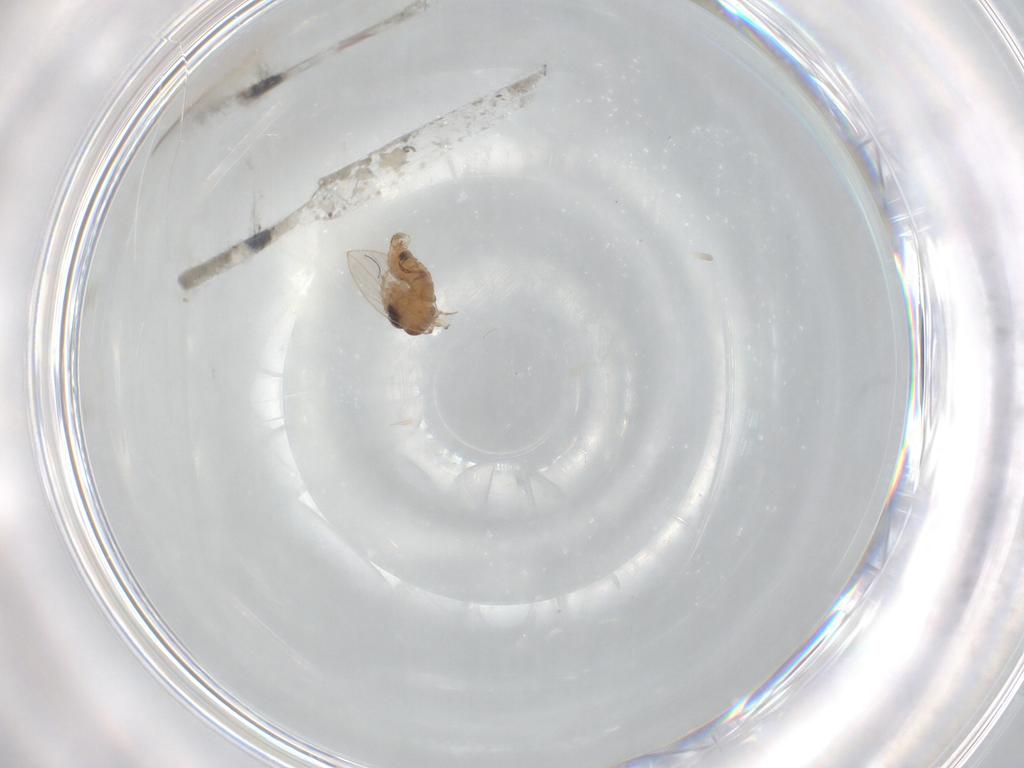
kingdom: Animalia
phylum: Arthropoda
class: Insecta
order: Diptera
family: Psychodidae
